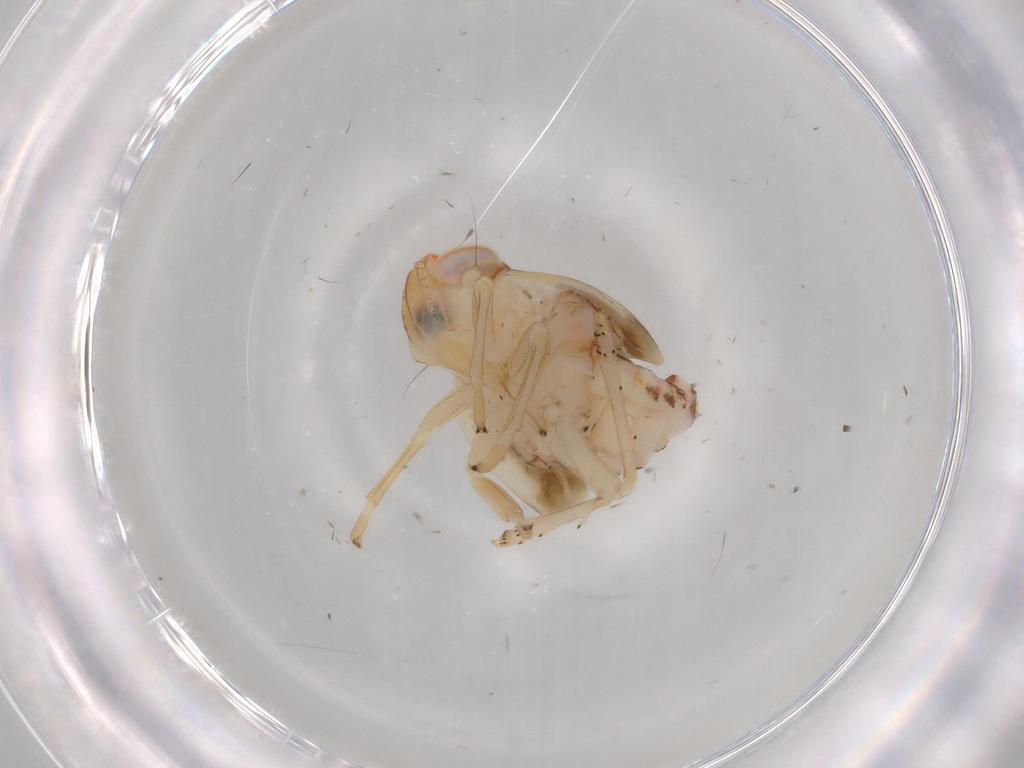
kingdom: Animalia
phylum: Arthropoda
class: Insecta
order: Hemiptera
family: Nogodinidae
